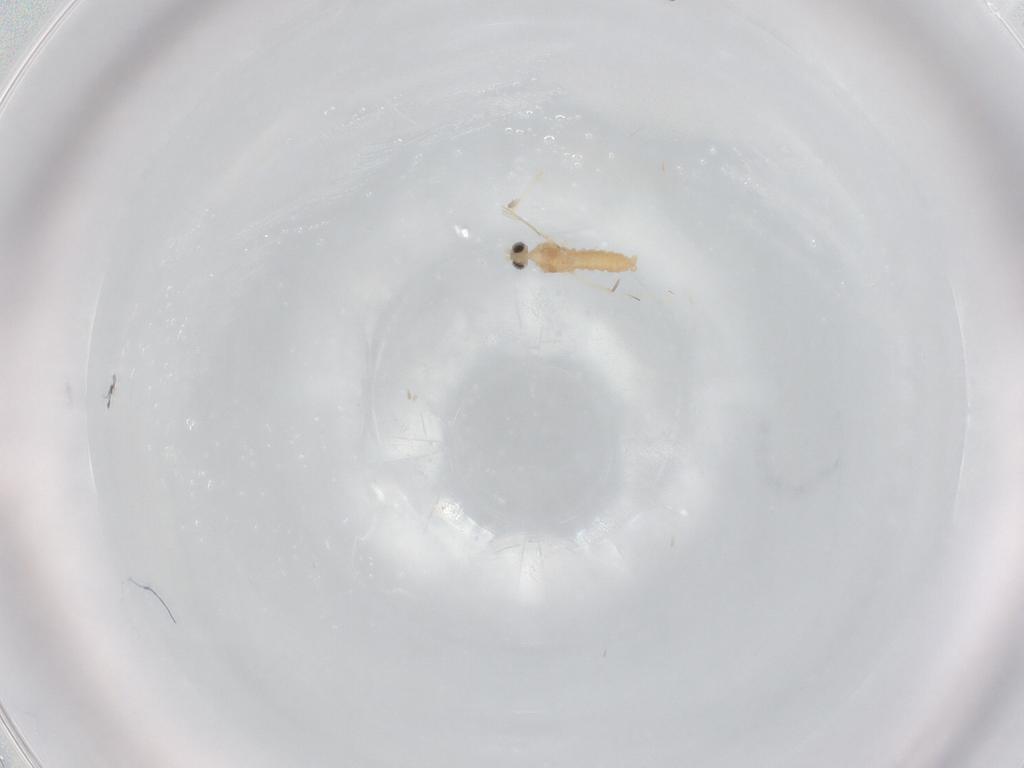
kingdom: Animalia
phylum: Arthropoda
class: Insecta
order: Diptera
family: Cecidomyiidae
